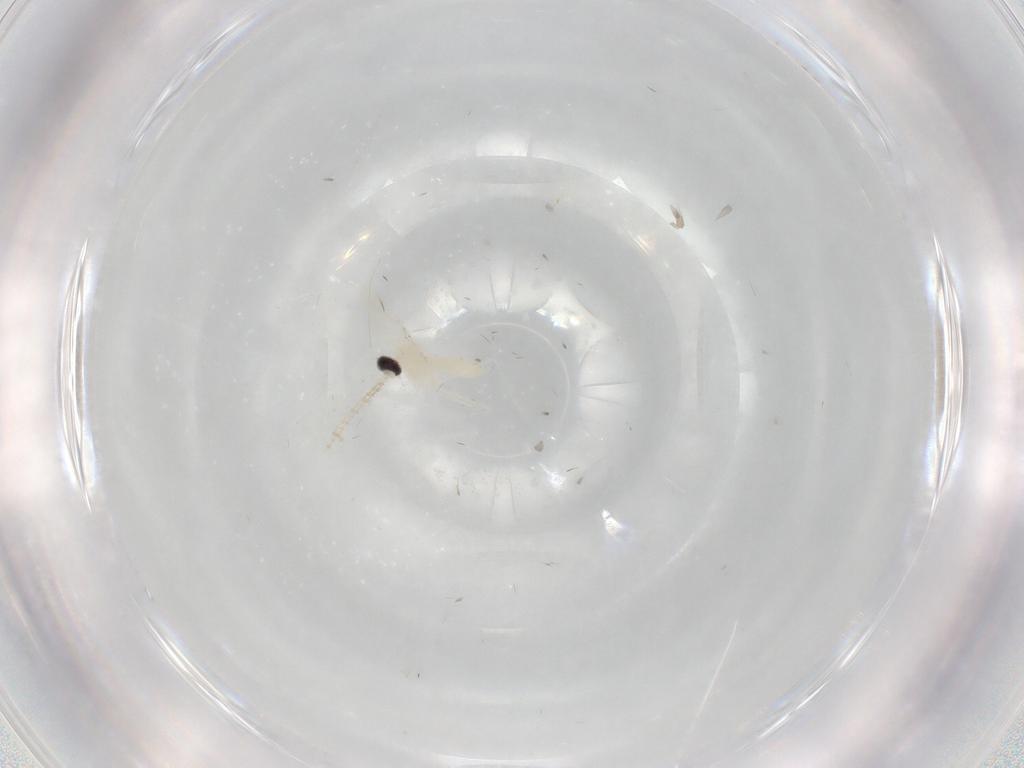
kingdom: Animalia
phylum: Arthropoda
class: Insecta
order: Diptera
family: Cecidomyiidae
